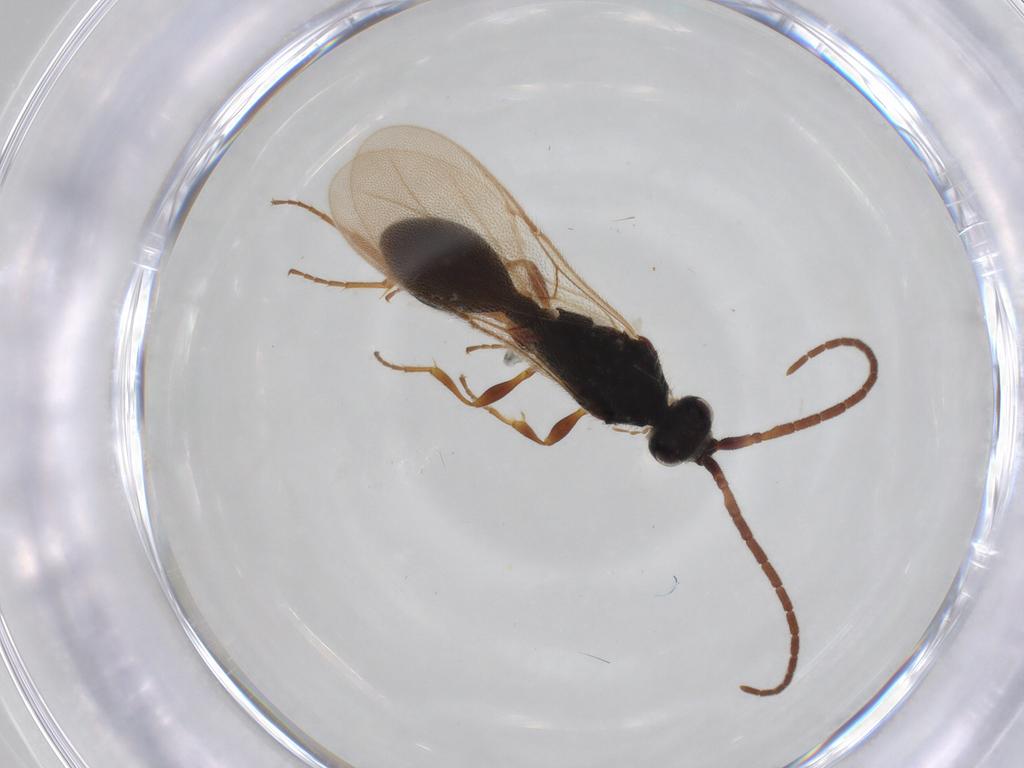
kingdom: Animalia
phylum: Arthropoda
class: Insecta
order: Hymenoptera
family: Diapriidae
